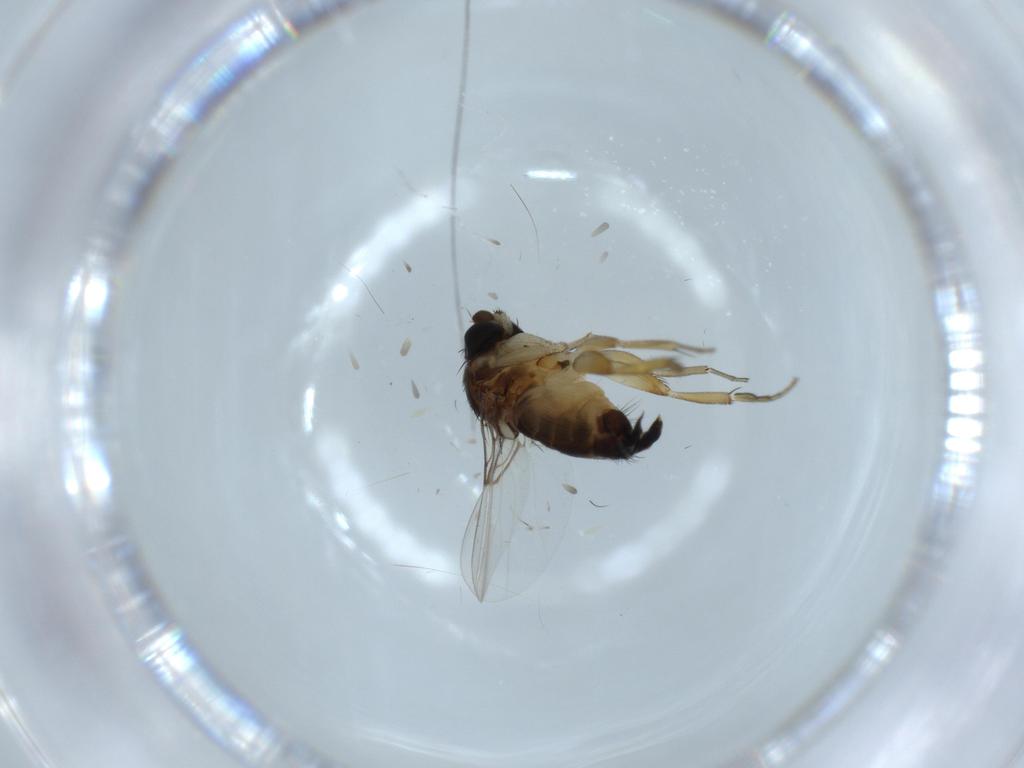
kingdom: Animalia
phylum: Arthropoda
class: Insecta
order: Diptera
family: Phoridae
